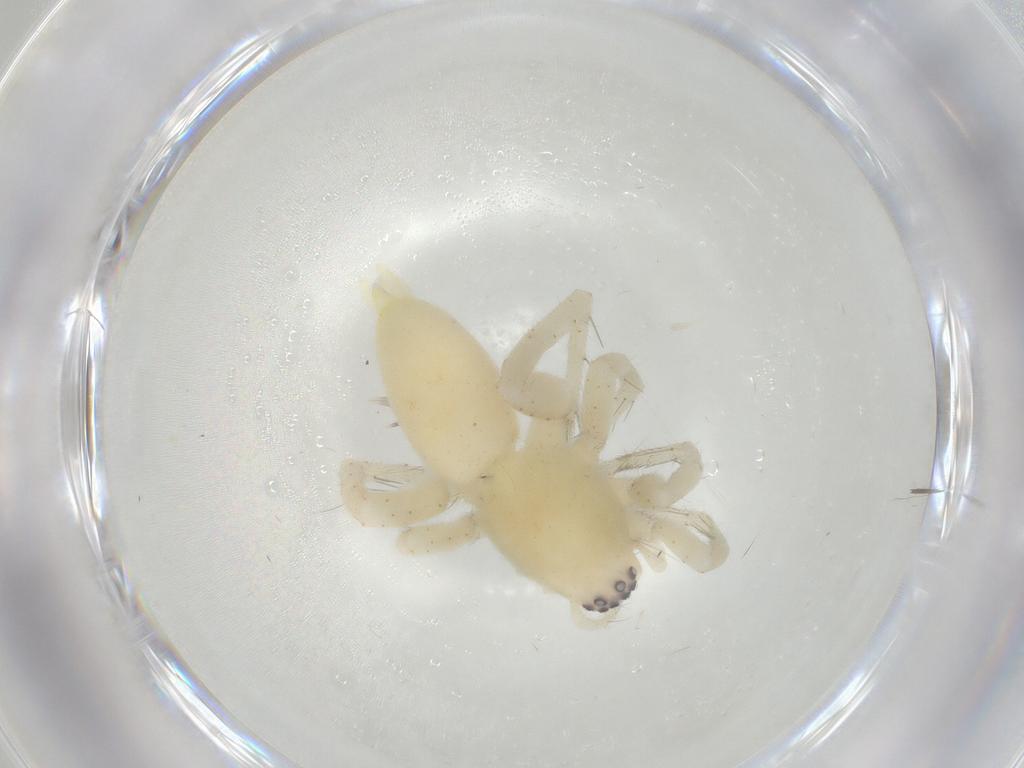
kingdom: Animalia
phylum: Arthropoda
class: Arachnida
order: Araneae
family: Clubionidae
